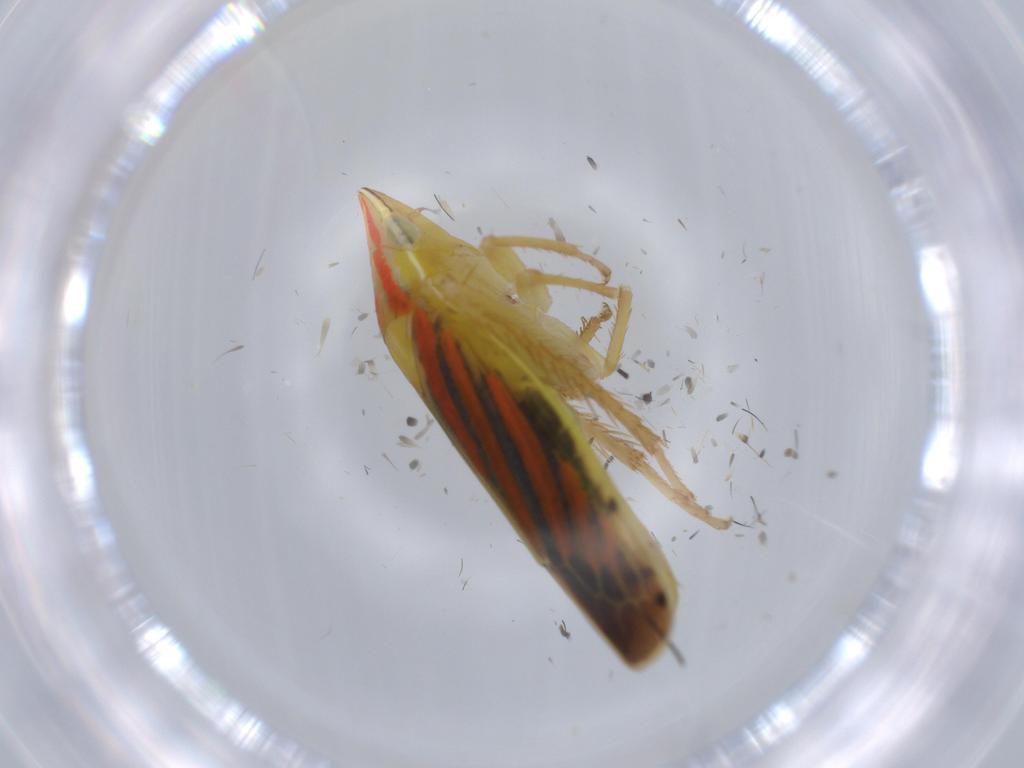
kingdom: Animalia
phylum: Arthropoda
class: Insecta
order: Hemiptera
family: Cicadellidae
